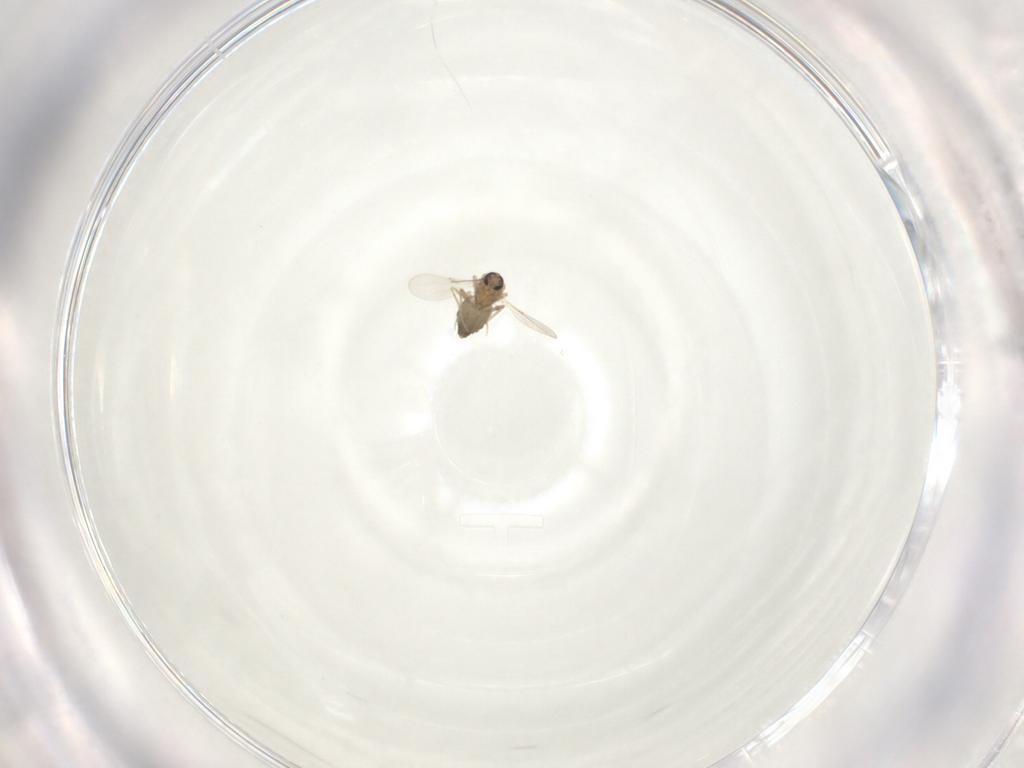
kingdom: Animalia
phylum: Arthropoda
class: Insecta
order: Diptera
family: Ceratopogonidae
